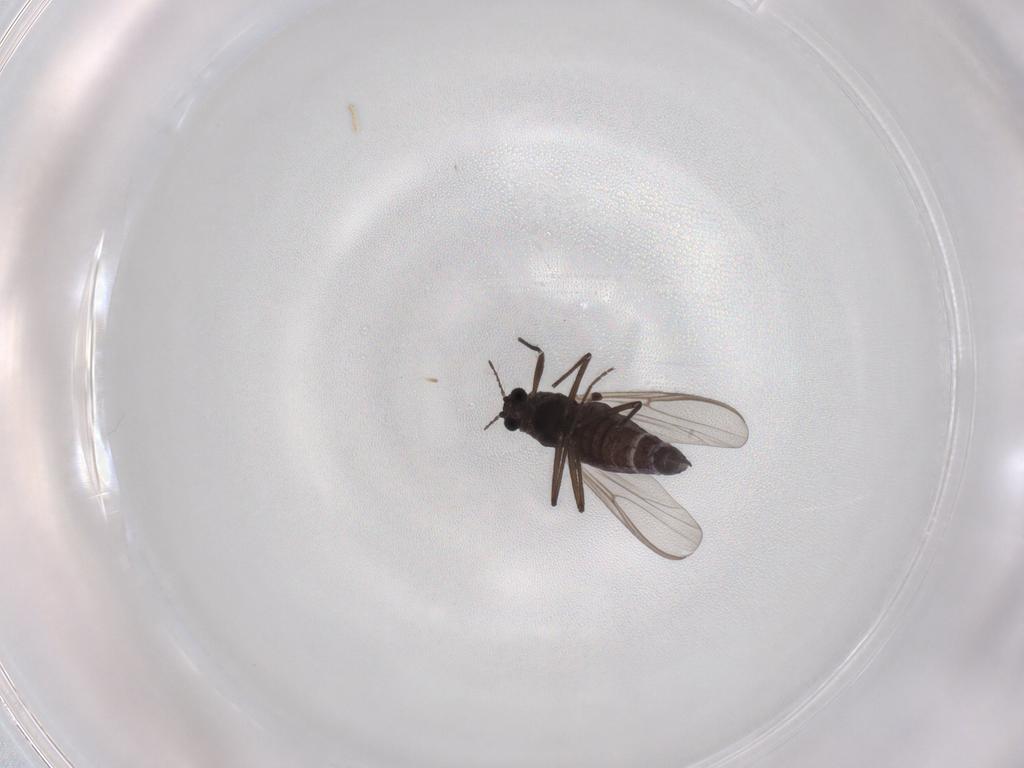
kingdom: Animalia
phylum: Arthropoda
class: Insecta
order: Diptera
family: Chironomidae
